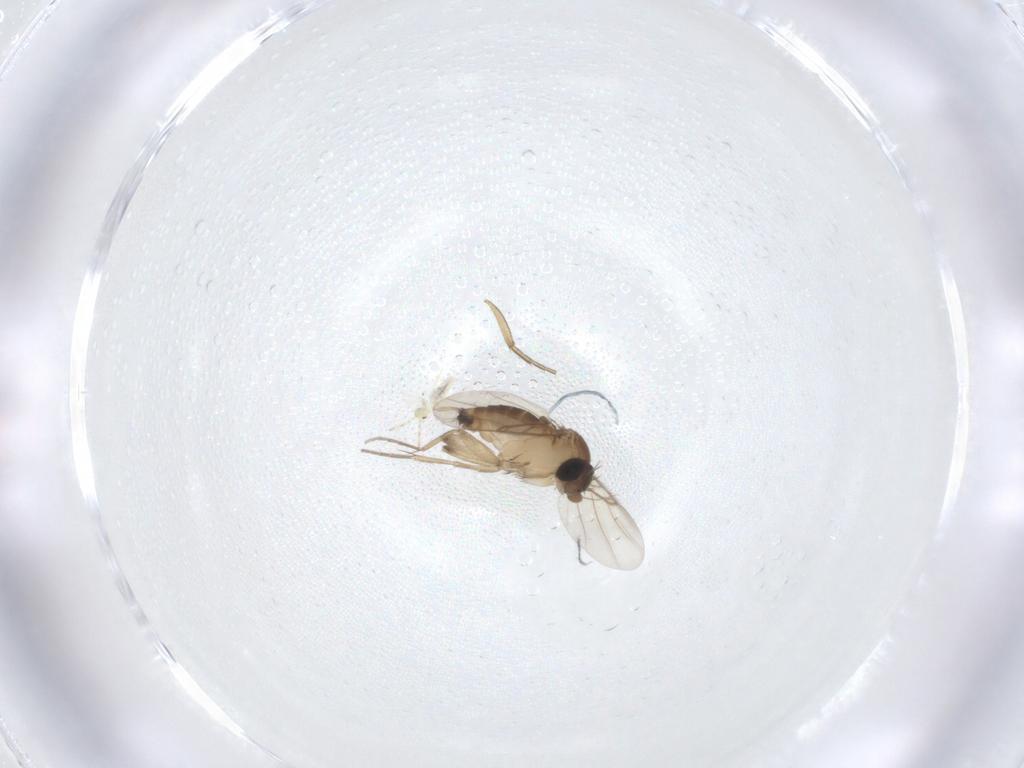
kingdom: Animalia
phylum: Arthropoda
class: Insecta
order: Diptera
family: Phoridae
